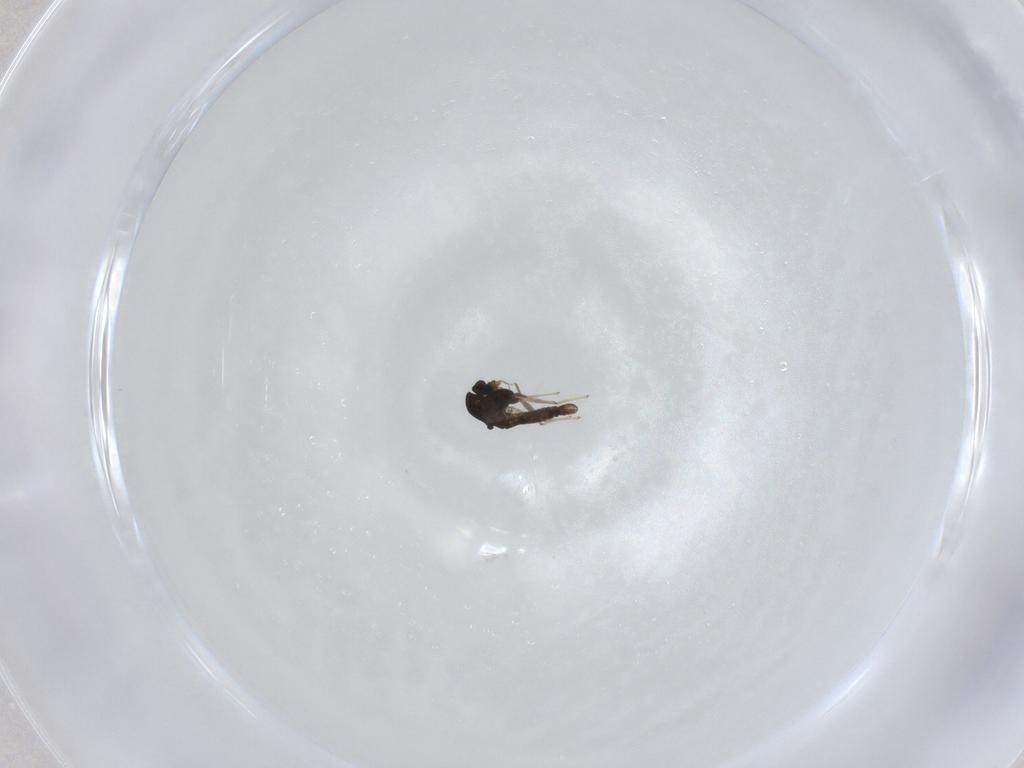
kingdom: Animalia
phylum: Arthropoda
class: Insecta
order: Diptera
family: Chironomidae
